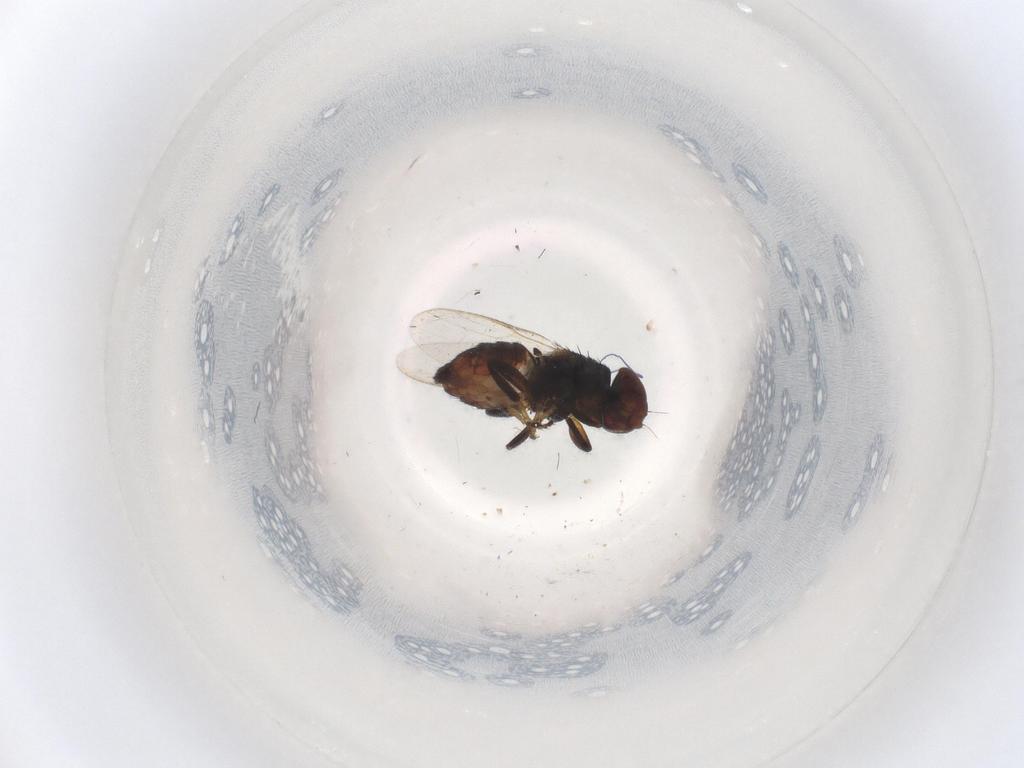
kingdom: Animalia
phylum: Arthropoda
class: Insecta
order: Diptera
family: Chloropidae
